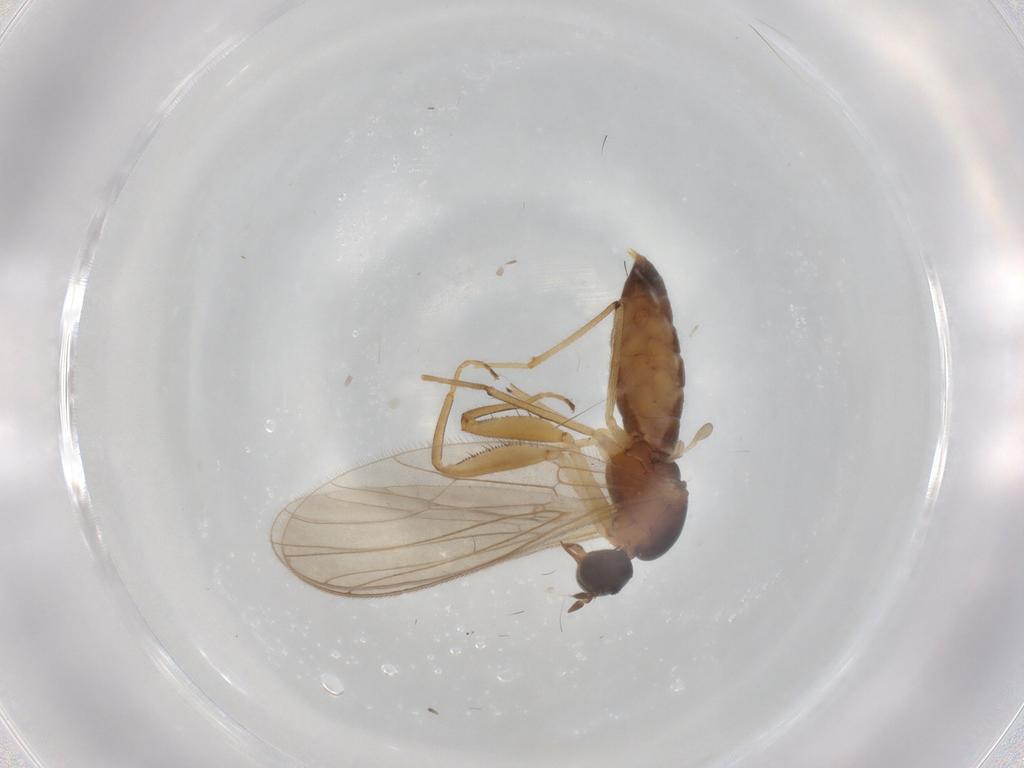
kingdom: Animalia
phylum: Arthropoda
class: Insecta
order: Diptera
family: Empididae
